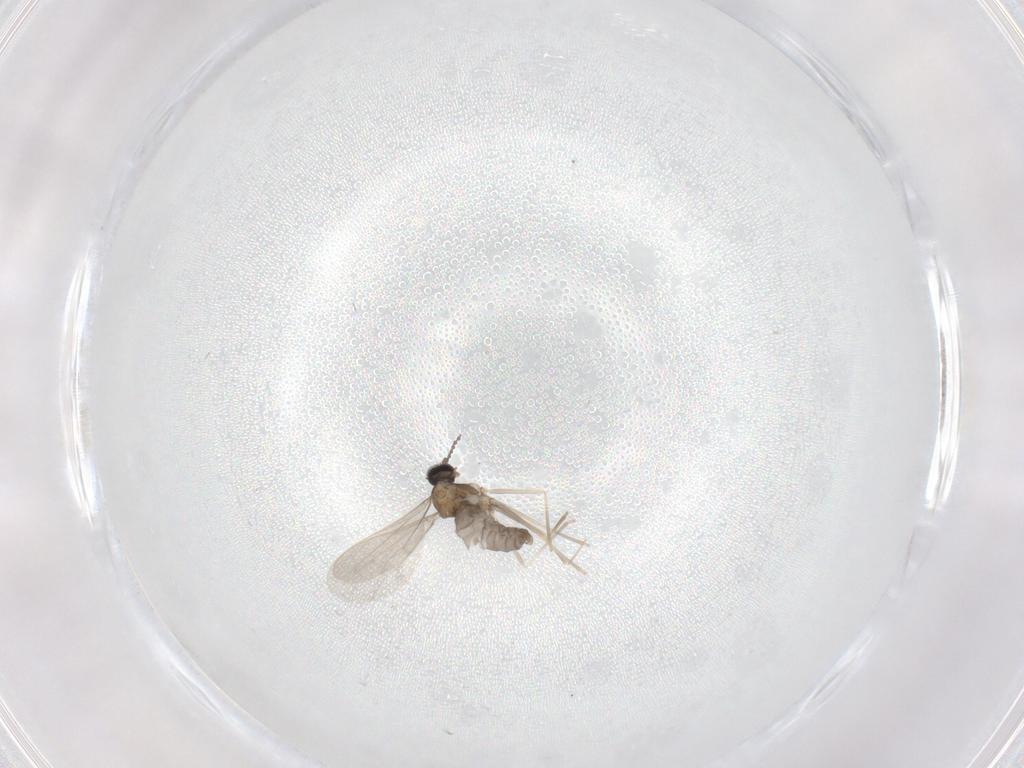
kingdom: Animalia
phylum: Arthropoda
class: Insecta
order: Diptera
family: Cecidomyiidae
